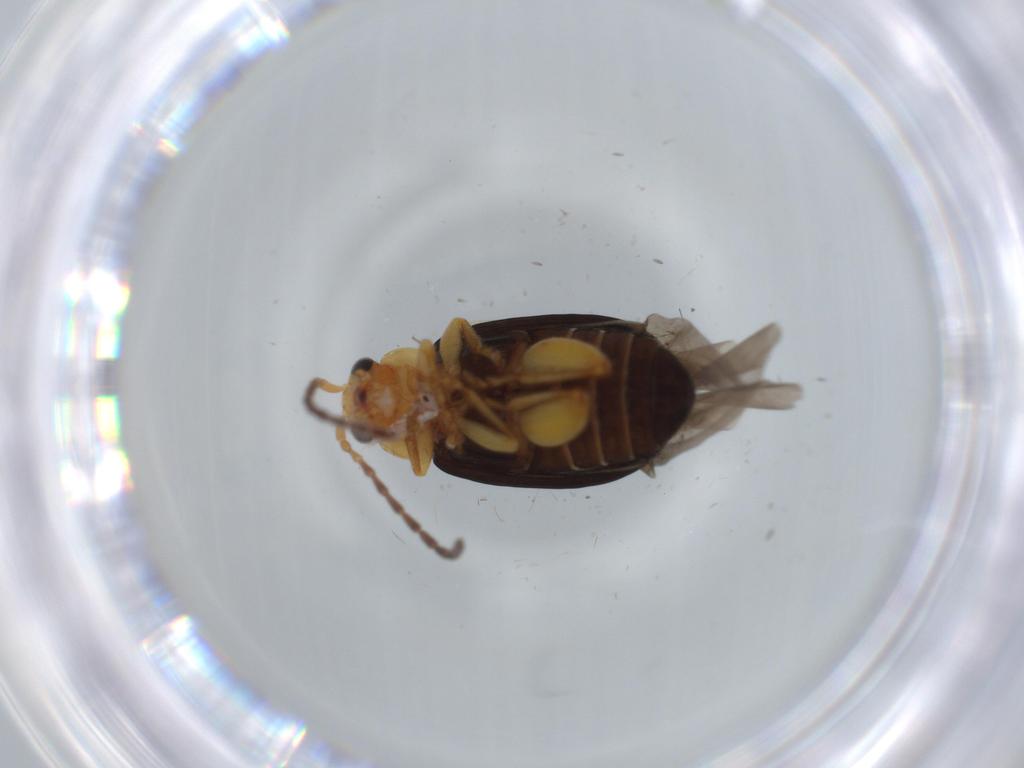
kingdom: Animalia
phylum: Arthropoda
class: Insecta
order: Coleoptera
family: Chrysomelidae
